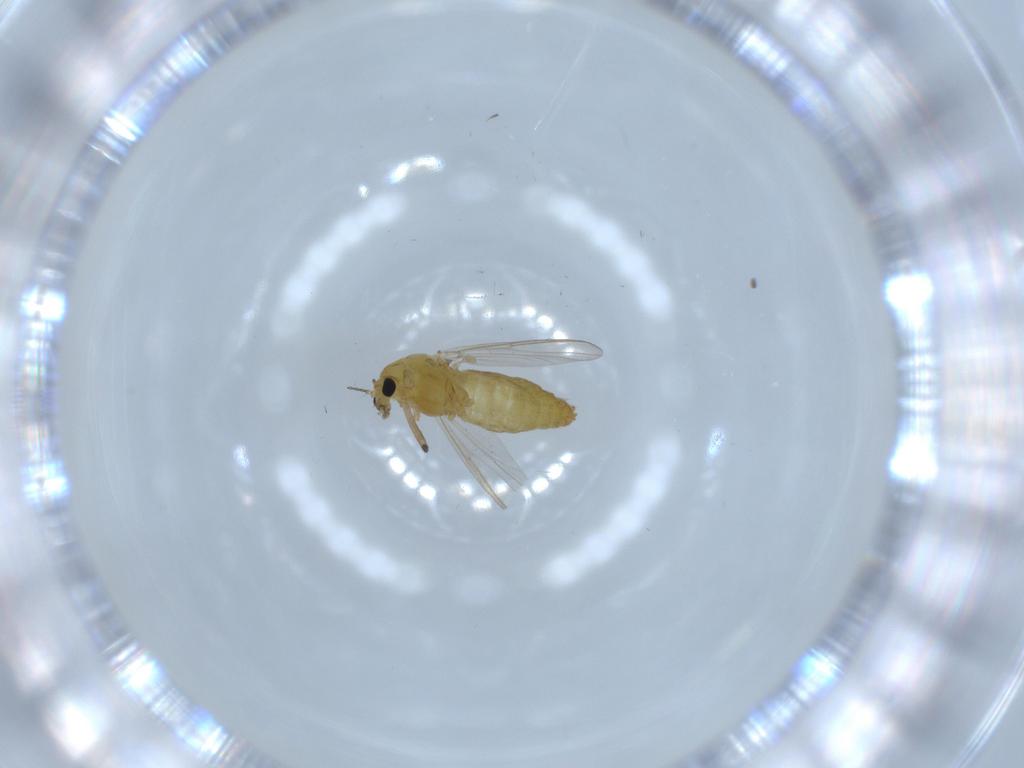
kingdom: Animalia
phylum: Arthropoda
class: Insecta
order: Diptera
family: Chironomidae
